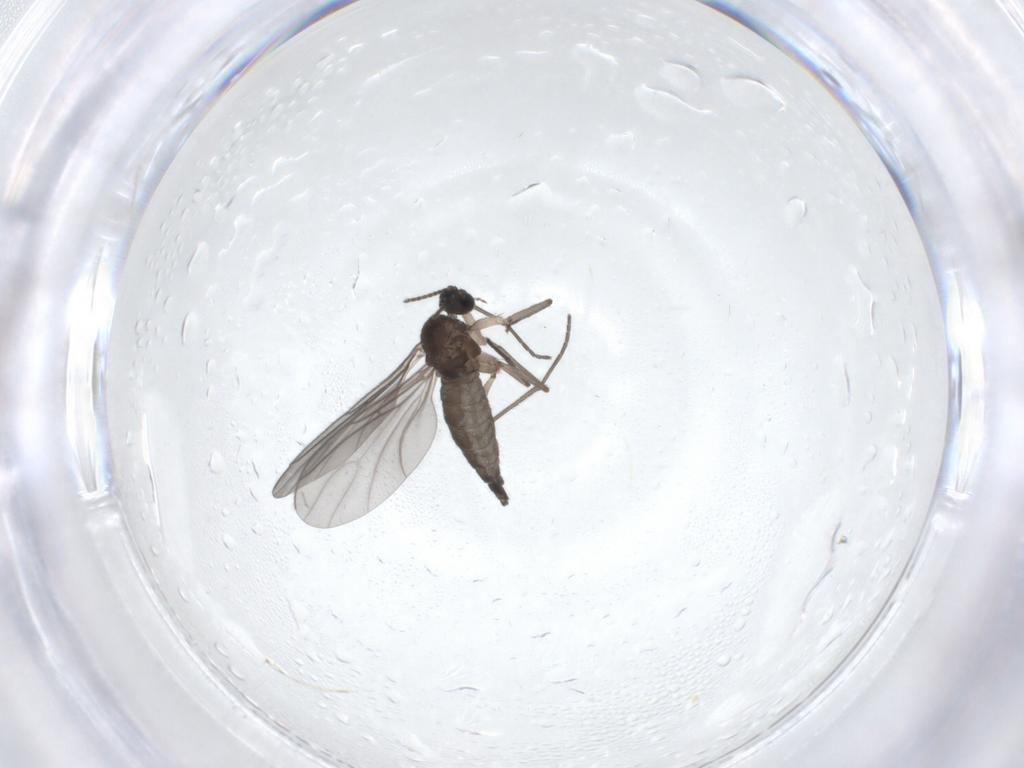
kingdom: Animalia
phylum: Arthropoda
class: Insecta
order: Diptera
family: Sciaridae
